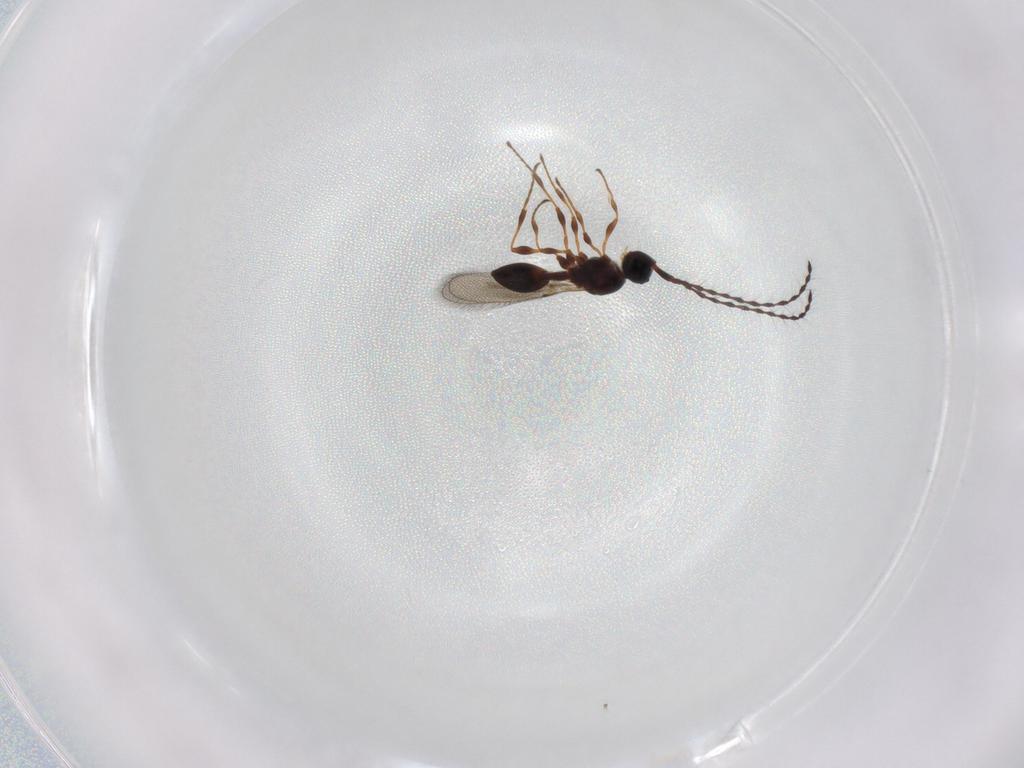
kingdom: Animalia
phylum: Arthropoda
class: Insecta
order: Hymenoptera
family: Diapriidae
